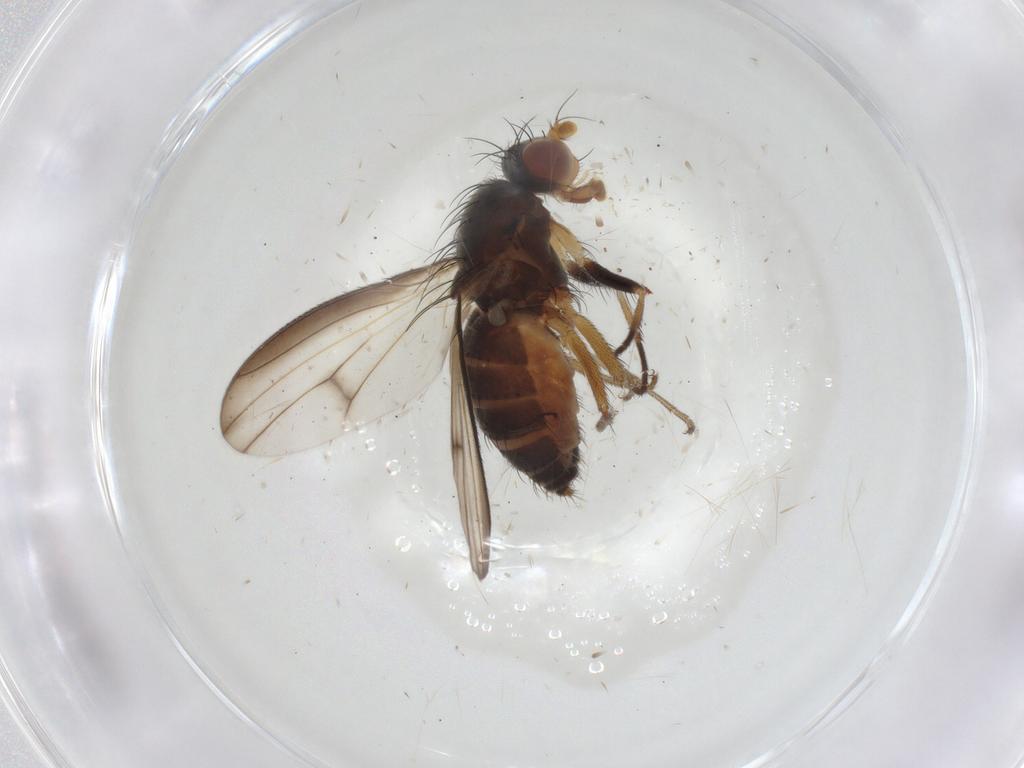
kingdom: Animalia
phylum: Arthropoda
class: Insecta
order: Diptera
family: Heleomyzidae
